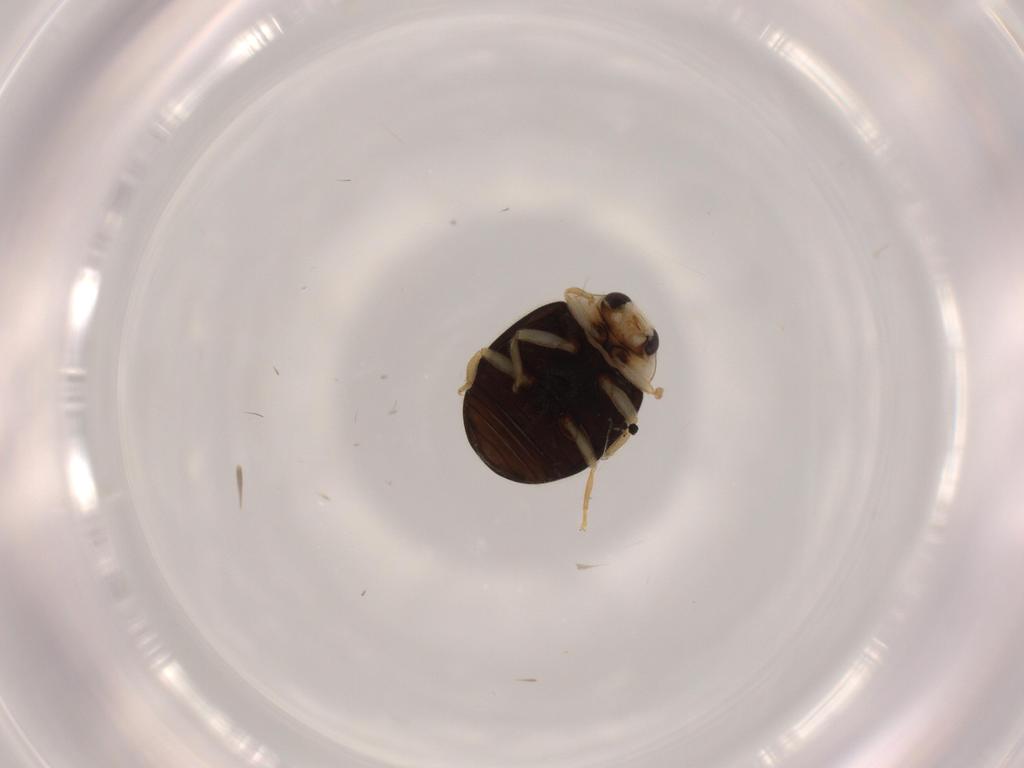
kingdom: Animalia
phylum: Arthropoda
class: Insecta
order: Coleoptera
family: Coccinellidae
